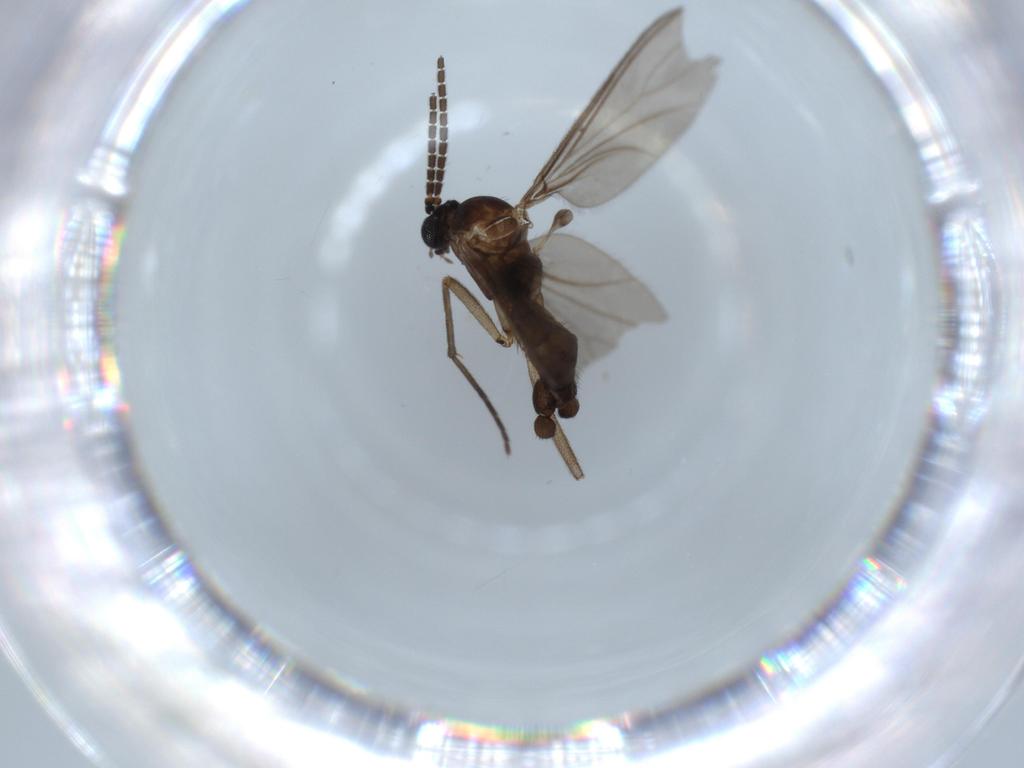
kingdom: Animalia
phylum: Arthropoda
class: Insecta
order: Diptera
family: Sciaridae
